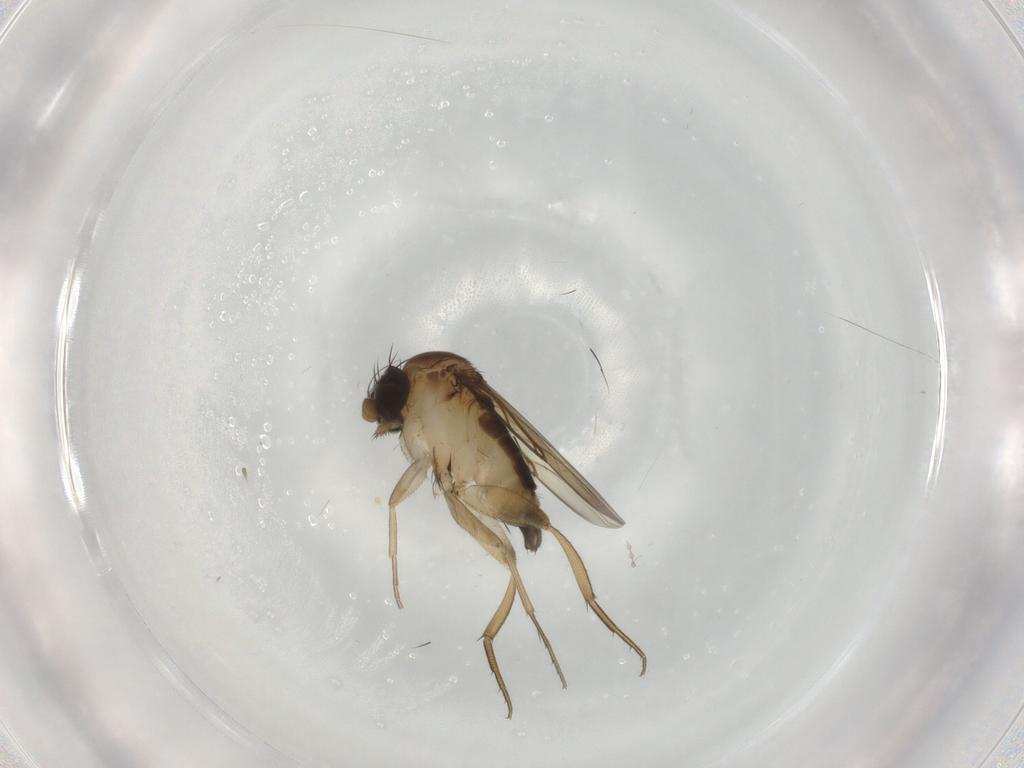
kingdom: Animalia
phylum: Arthropoda
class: Insecta
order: Diptera
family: Phoridae
